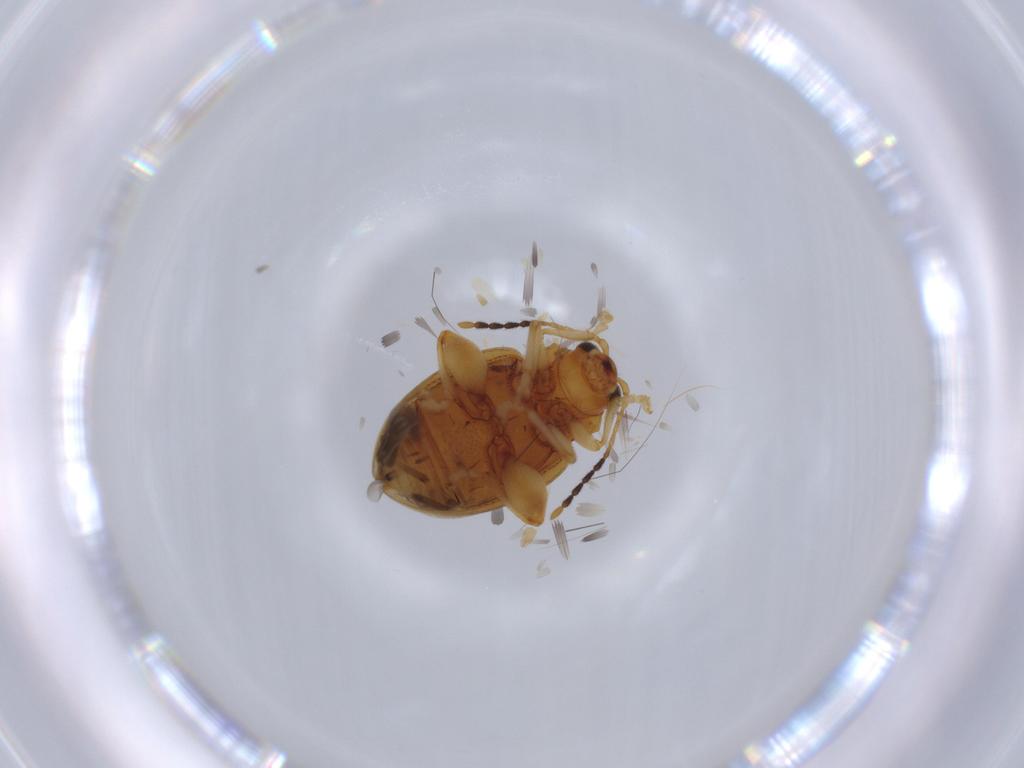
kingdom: Animalia
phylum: Arthropoda
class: Insecta
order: Coleoptera
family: Chrysomelidae
